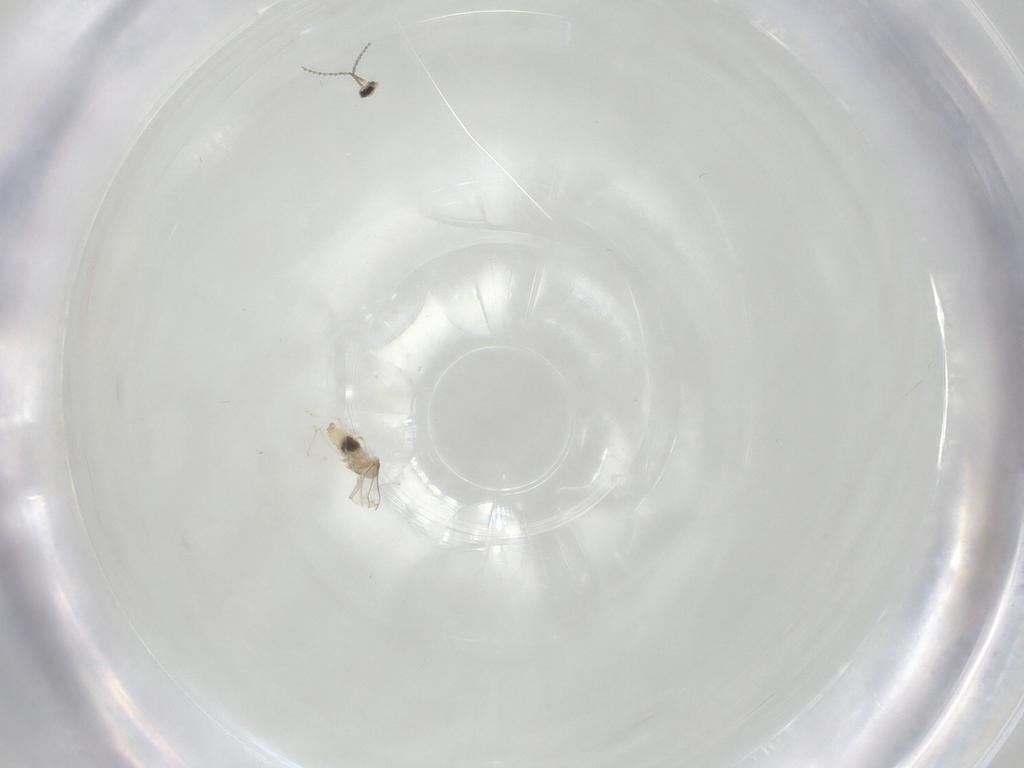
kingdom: Animalia
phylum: Arthropoda
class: Insecta
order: Diptera
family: Cecidomyiidae
